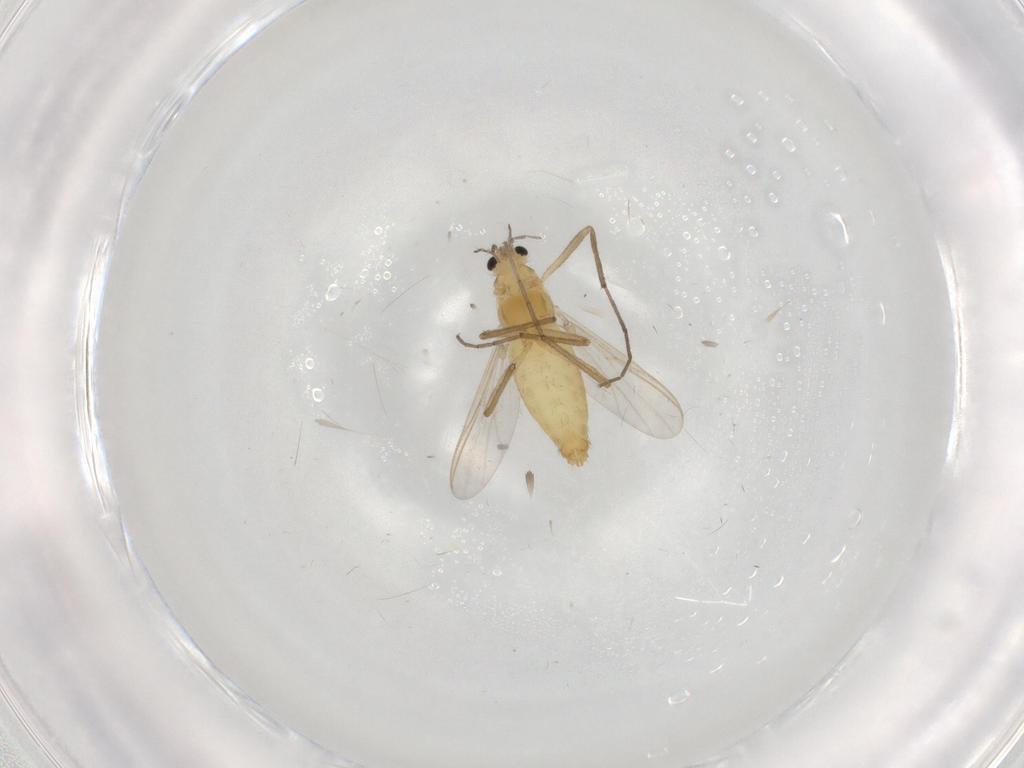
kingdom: Animalia
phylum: Arthropoda
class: Insecta
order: Diptera
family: Chironomidae
